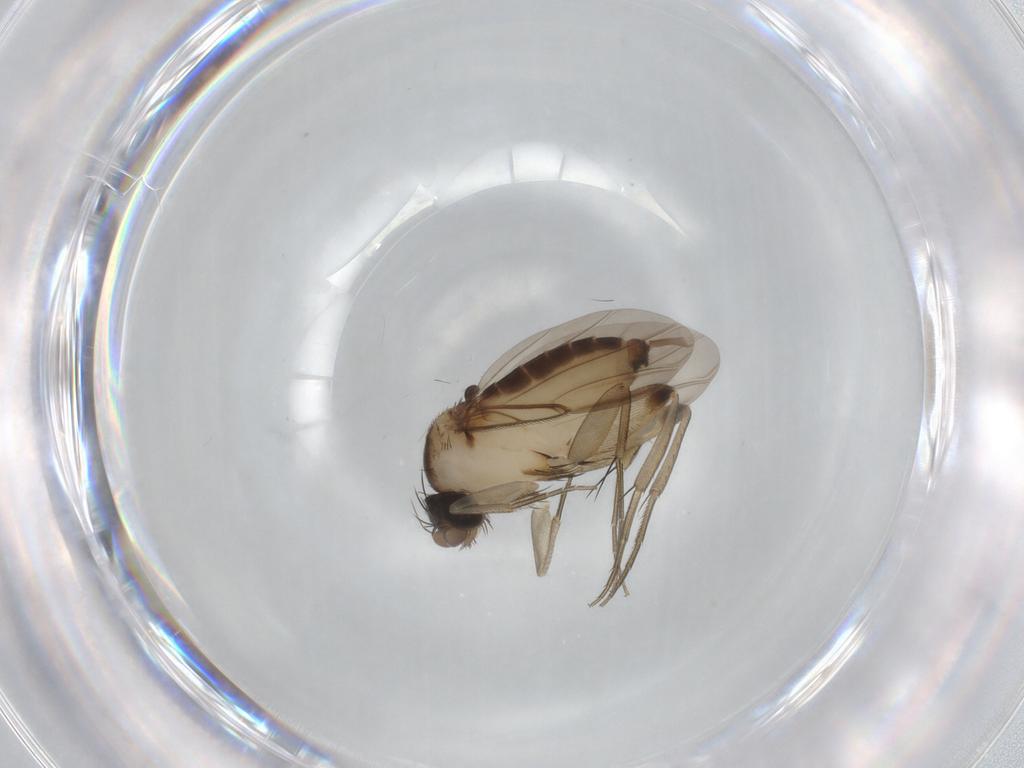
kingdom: Animalia
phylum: Arthropoda
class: Insecta
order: Diptera
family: Phoridae
